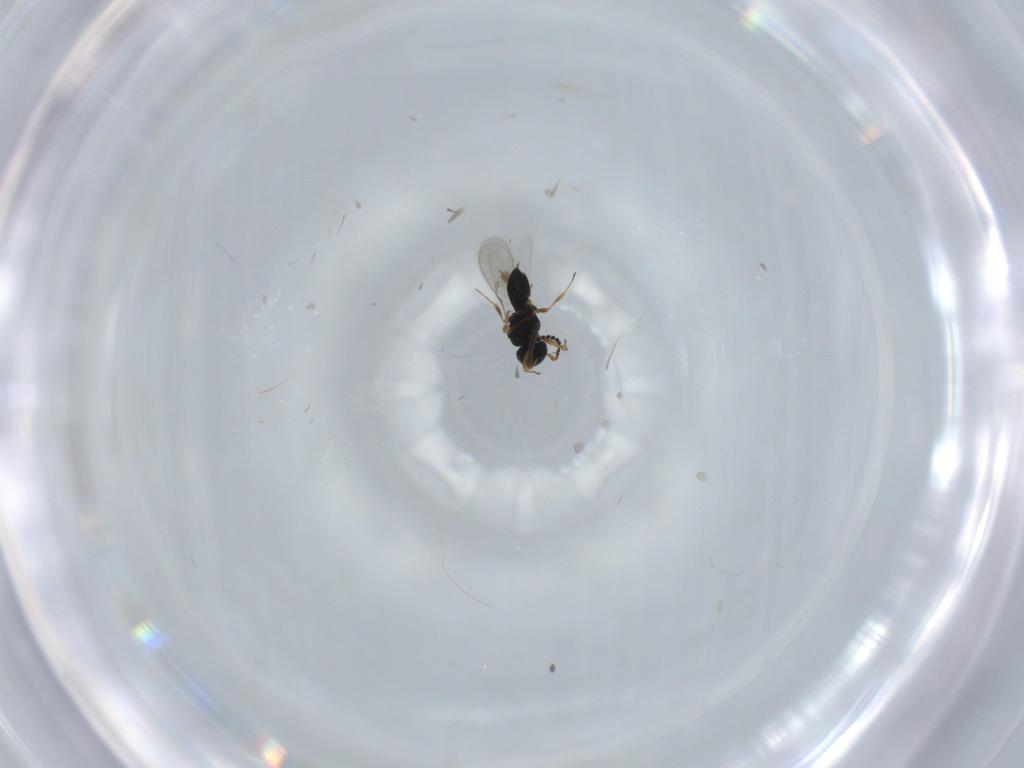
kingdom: Animalia
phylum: Arthropoda
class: Insecta
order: Hymenoptera
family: Scelionidae
